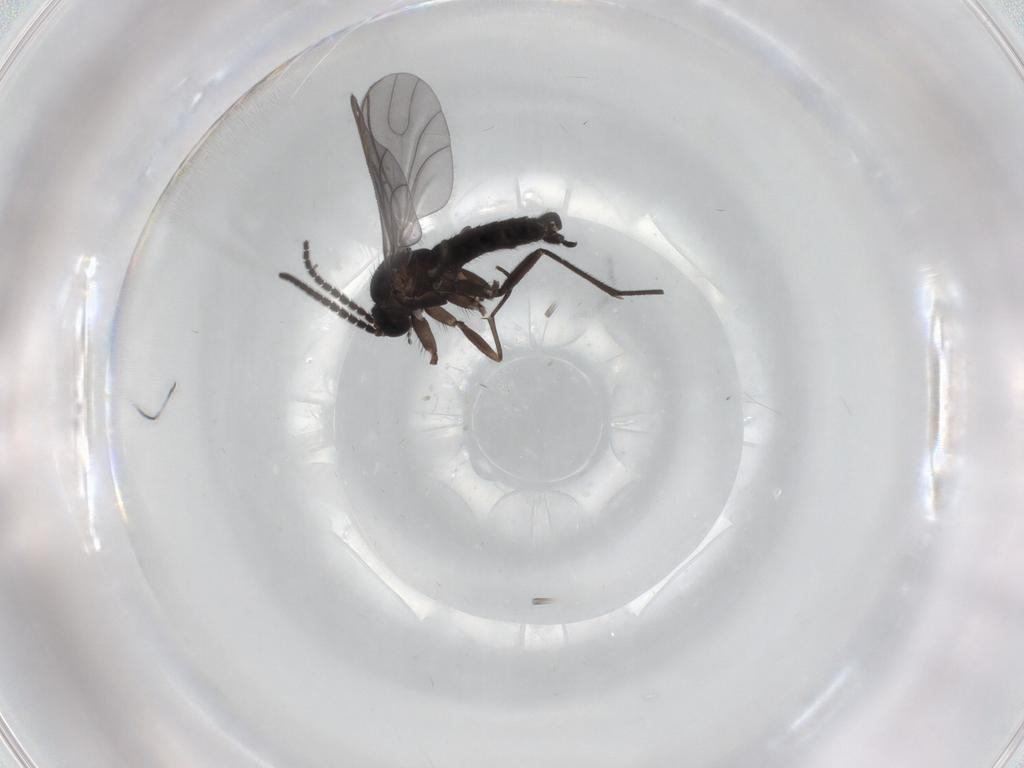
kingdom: Animalia
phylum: Arthropoda
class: Insecta
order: Diptera
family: Sciaridae
